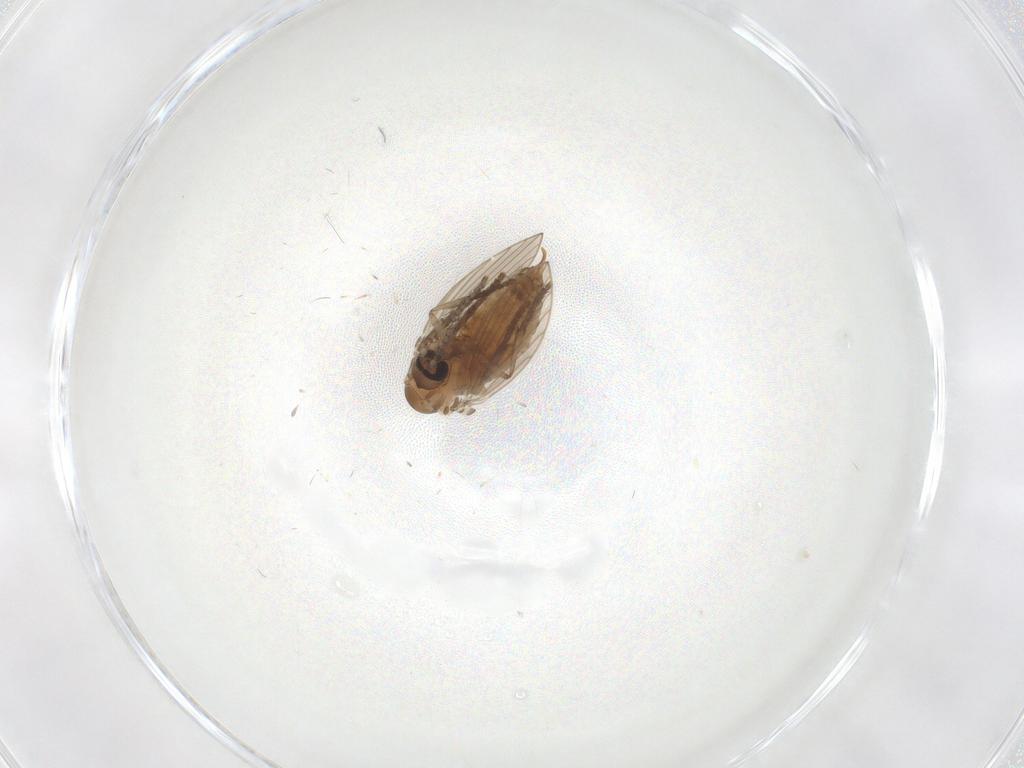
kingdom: Animalia
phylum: Arthropoda
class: Insecta
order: Diptera
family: Psychodidae
